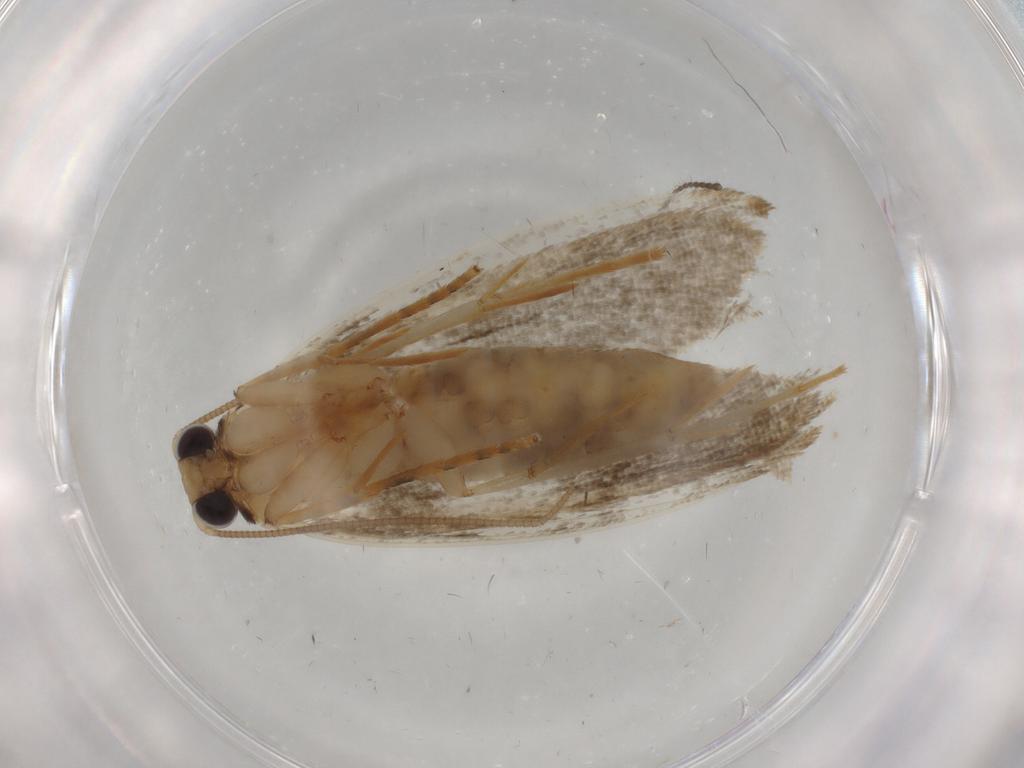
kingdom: Animalia
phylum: Arthropoda
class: Insecta
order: Lepidoptera
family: Tineidae
